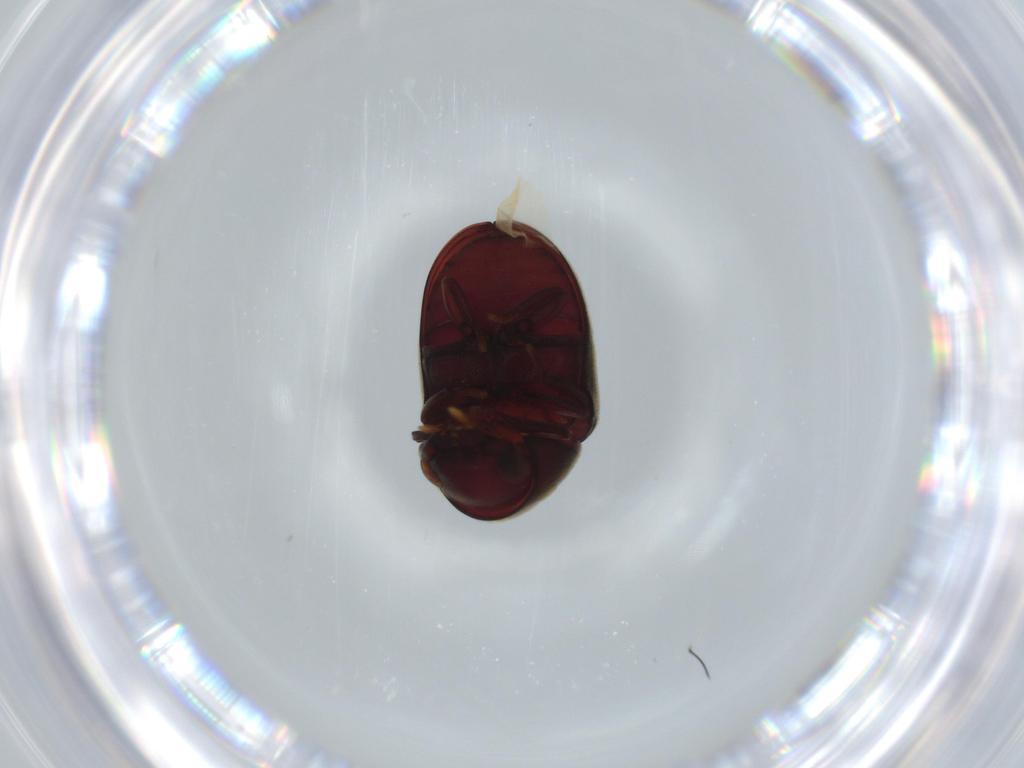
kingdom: Animalia
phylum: Arthropoda
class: Insecta
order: Coleoptera
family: Ptinidae
